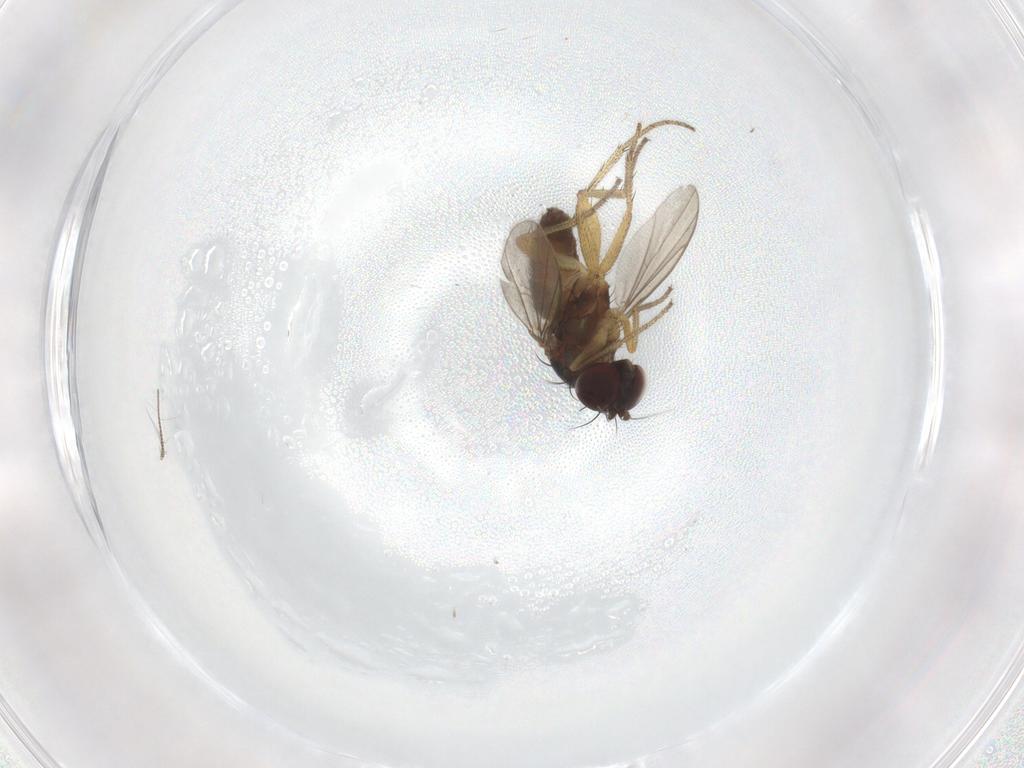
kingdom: Animalia
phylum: Arthropoda
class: Insecta
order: Diptera
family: Chironomidae
